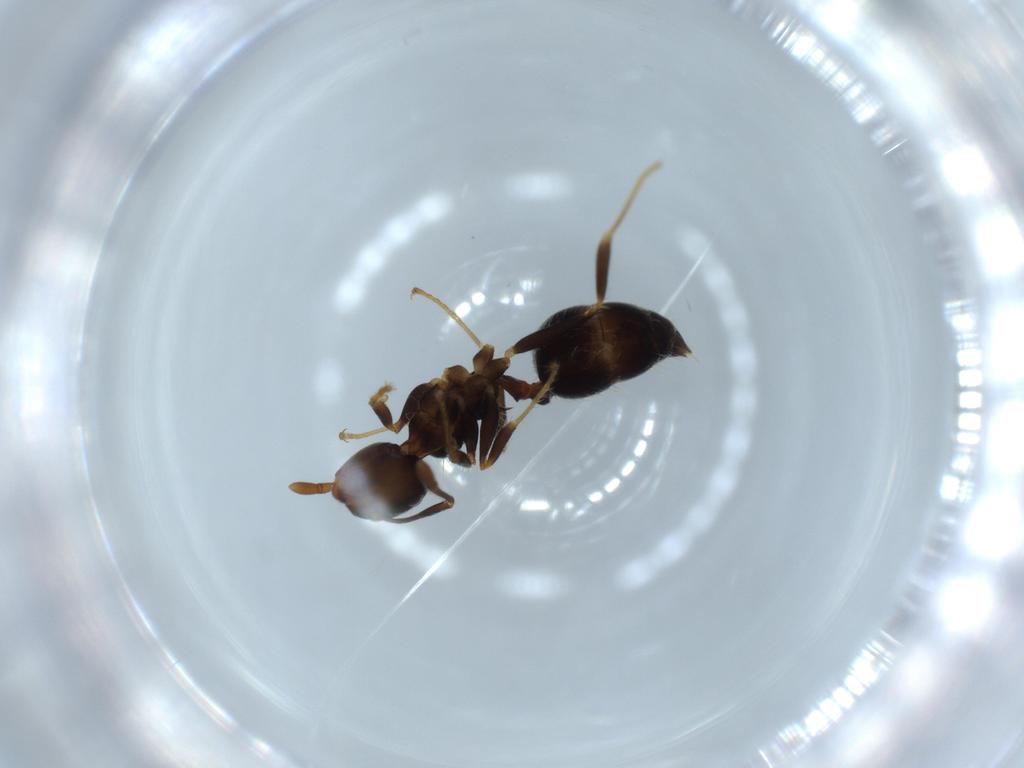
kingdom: Animalia
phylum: Arthropoda
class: Insecta
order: Hymenoptera
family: Formicidae
